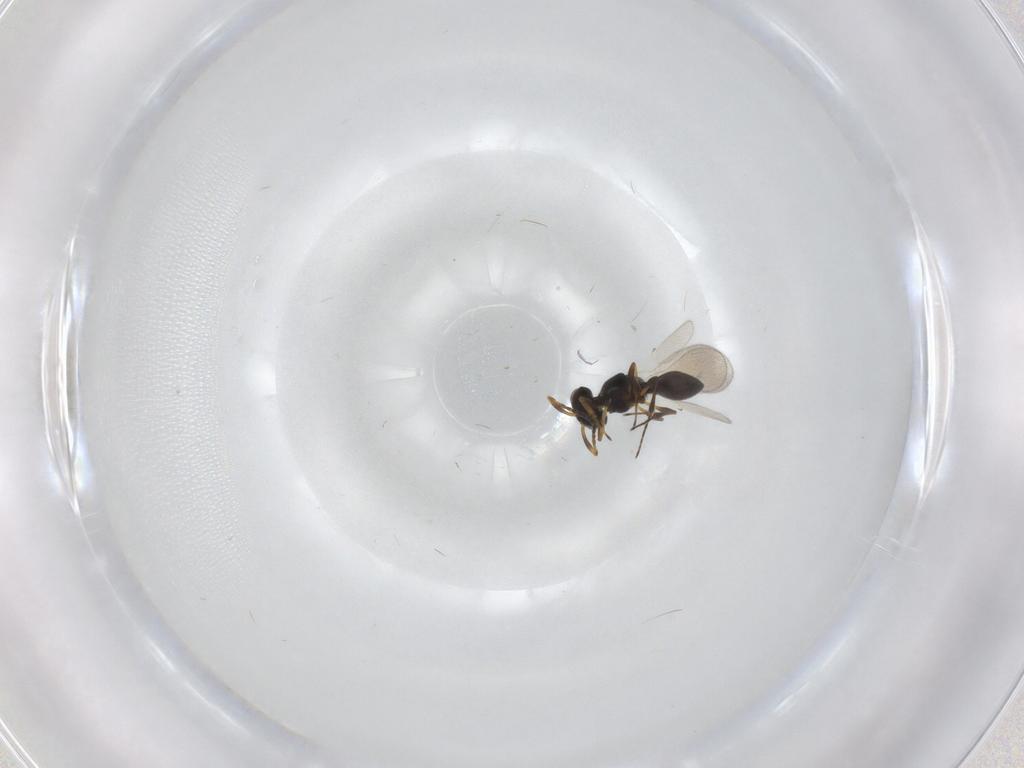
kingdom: Animalia
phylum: Arthropoda
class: Insecta
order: Hymenoptera
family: Platygastridae
